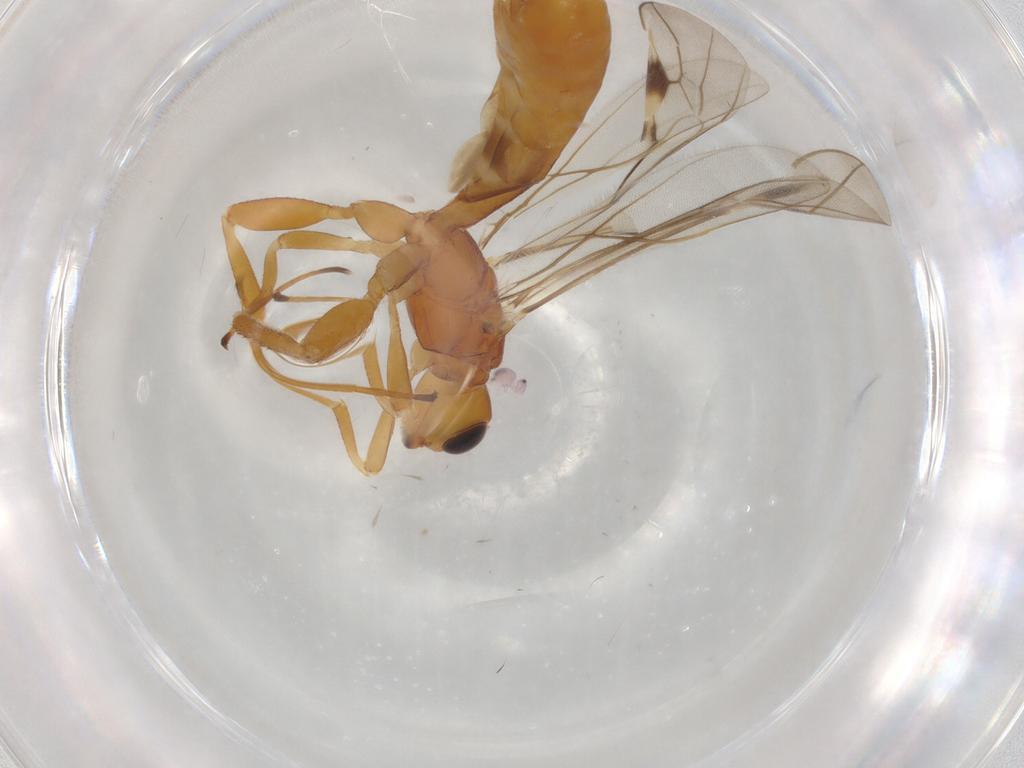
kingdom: Animalia
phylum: Arthropoda
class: Insecta
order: Hymenoptera
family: Braconidae
